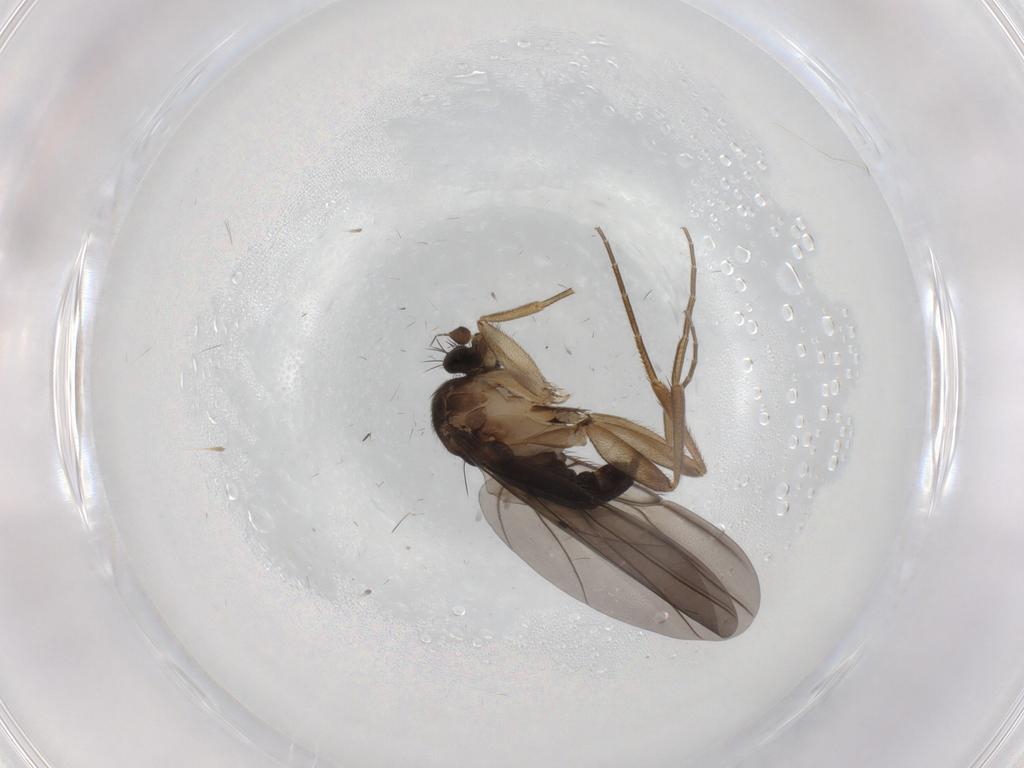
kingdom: Animalia
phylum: Arthropoda
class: Insecta
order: Diptera
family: Phoridae
